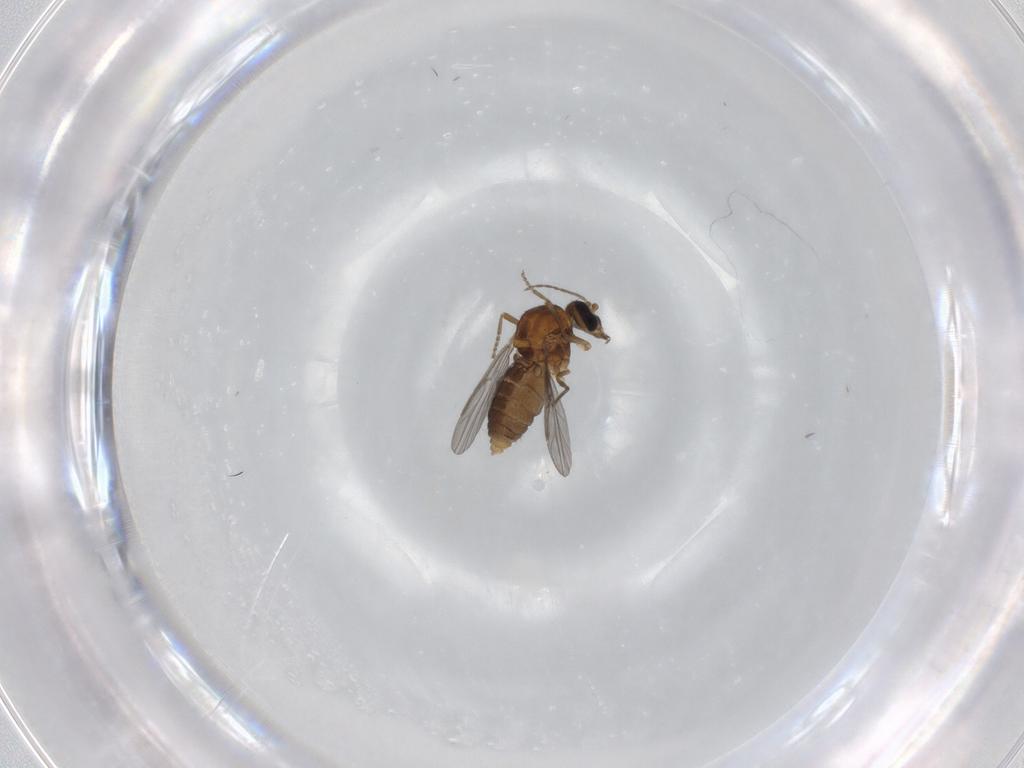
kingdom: Animalia
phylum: Arthropoda
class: Insecta
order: Diptera
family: Ceratopogonidae
